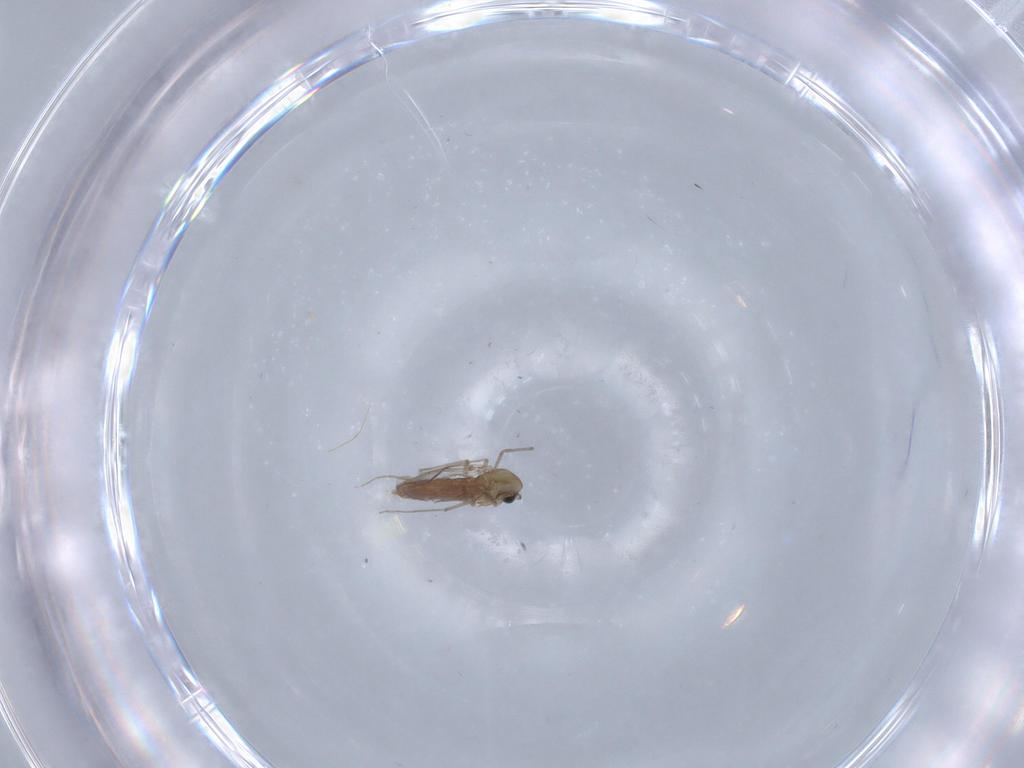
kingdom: Animalia
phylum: Arthropoda
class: Insecta
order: Diptera
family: Chironomidae
